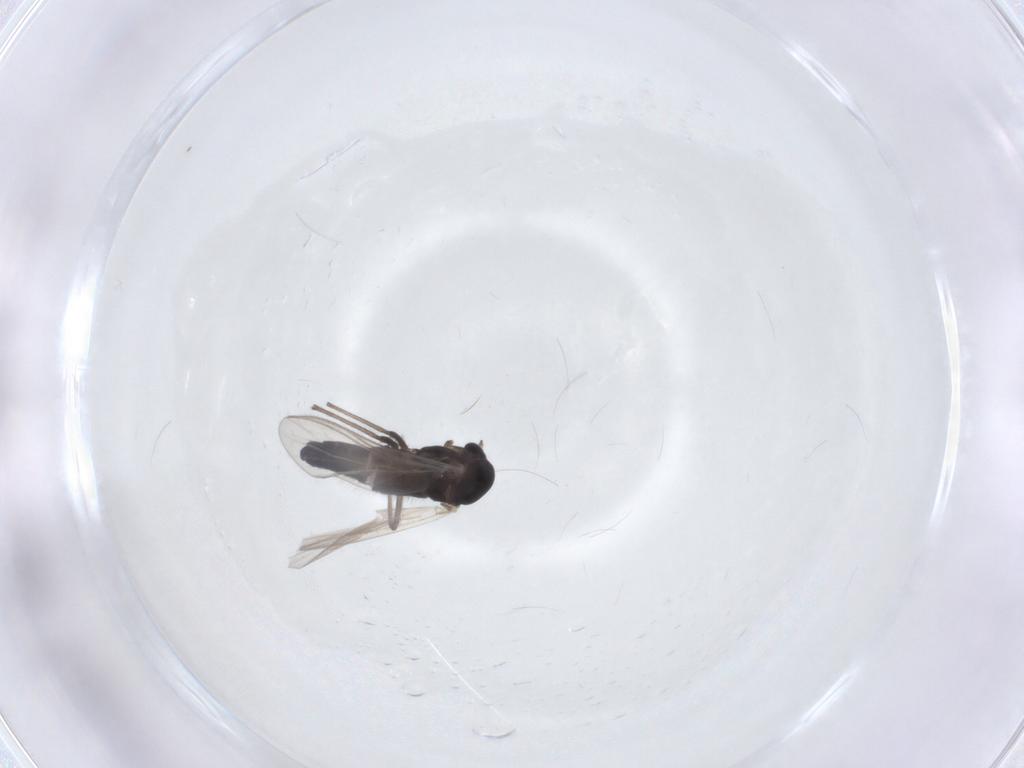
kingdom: Animalia
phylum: Arthropoda
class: Insecta
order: Diptera
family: Chironomidae
